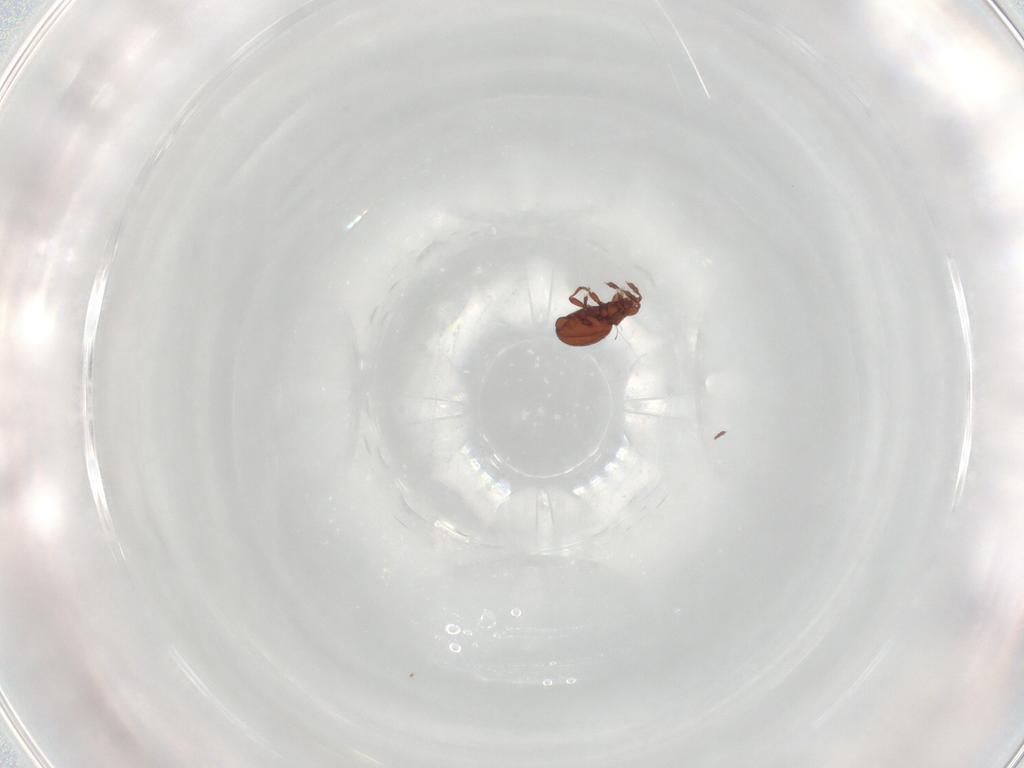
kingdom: Animalia
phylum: Arthropoda
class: Arachnida
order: Sarcoptiformes
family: Eremaeidae
